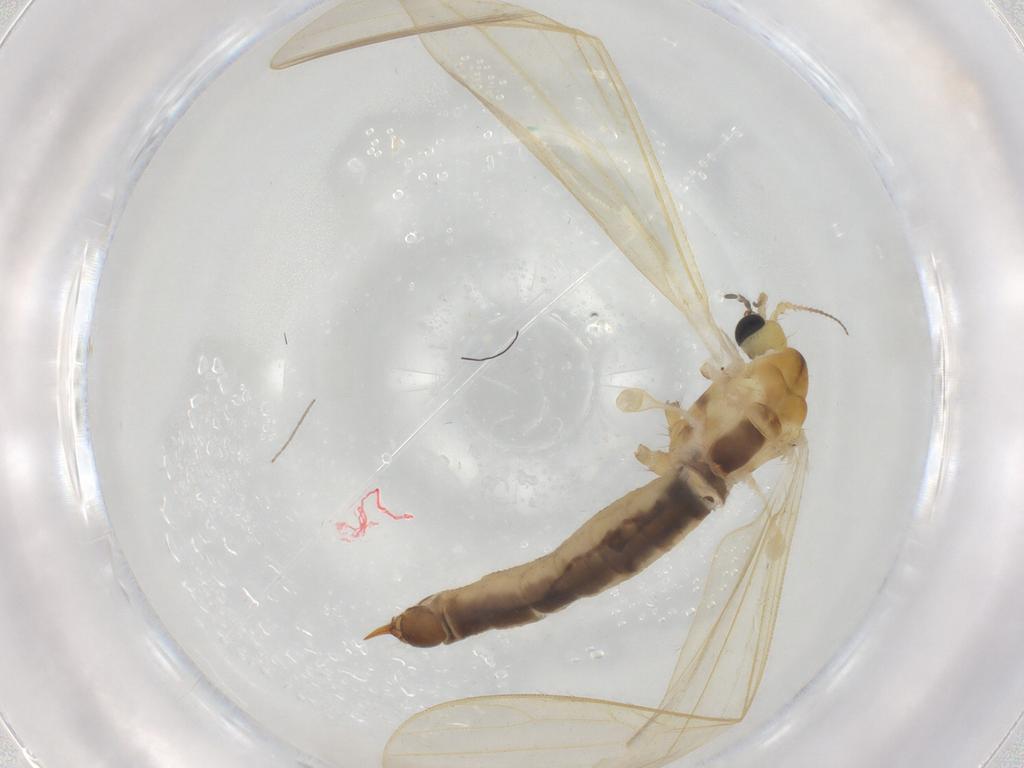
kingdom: Animalia
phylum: Arthropoda
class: Insecta
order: Diptera
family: Muscidae
